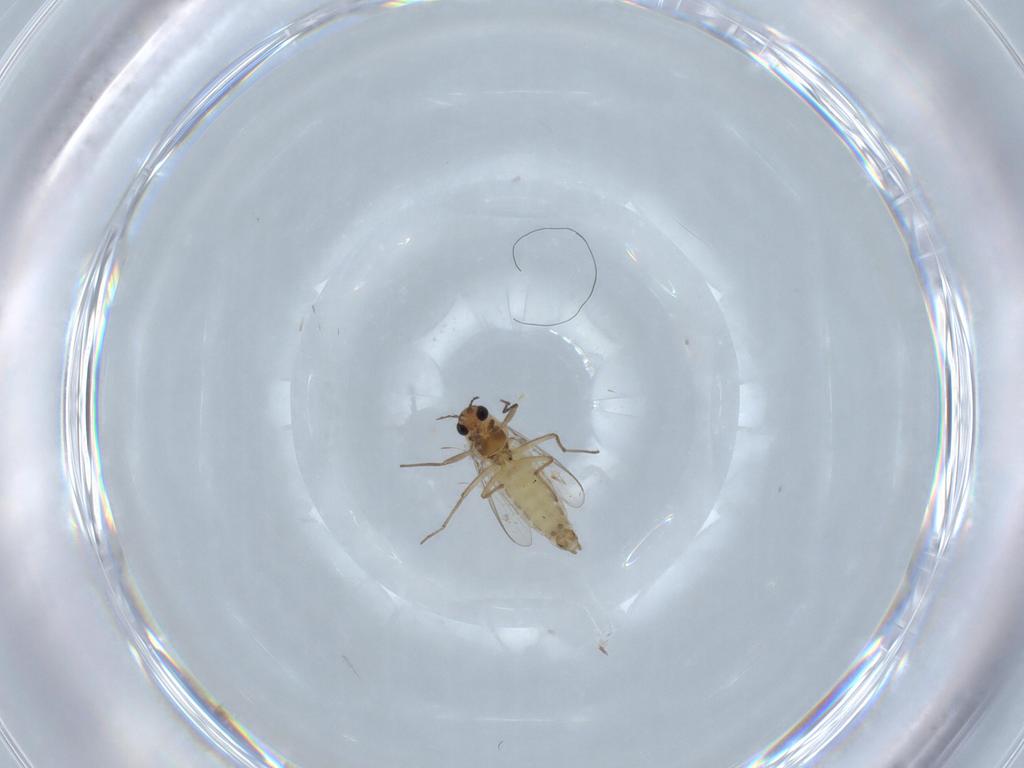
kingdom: Animalia
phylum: Arthropoda
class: Insecta
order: Diptera
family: Chironomidae
